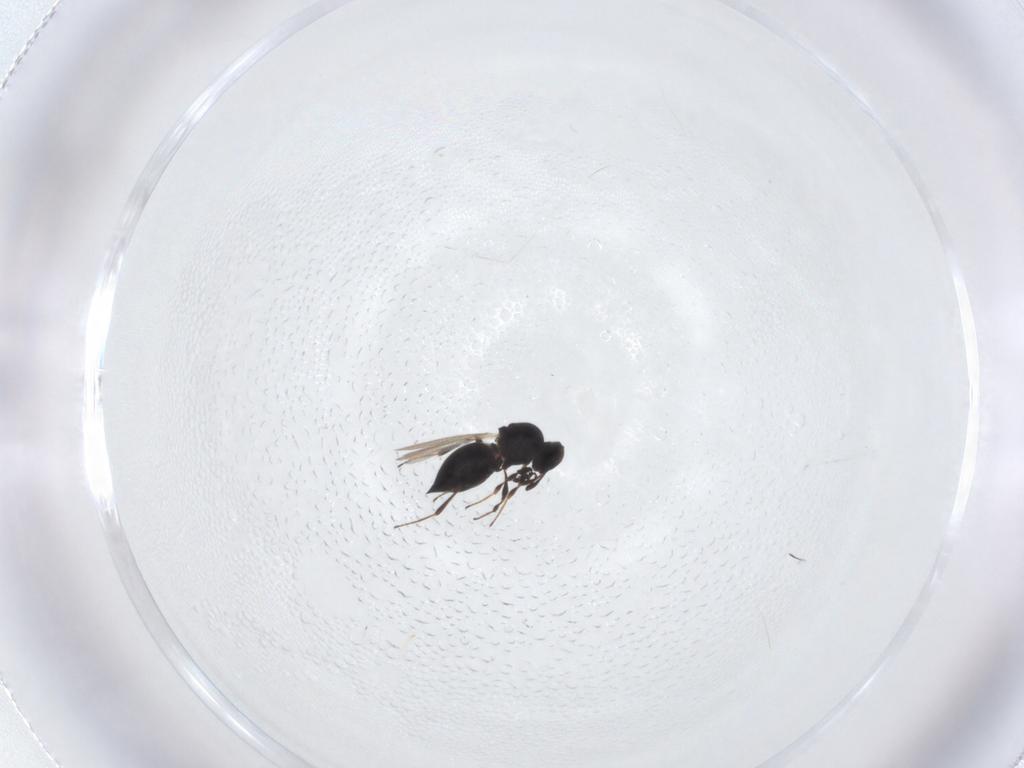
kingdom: Animalia
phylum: Arthropoda
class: Insecta
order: Hymenoptera
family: Platygastridae
